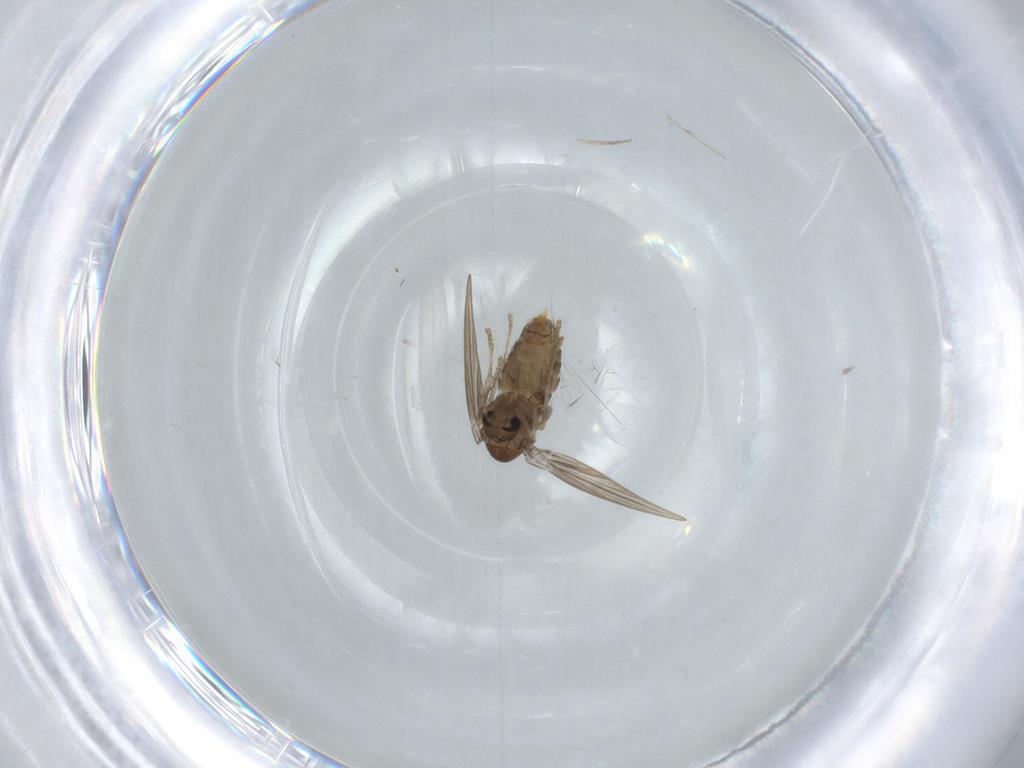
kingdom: Animalia
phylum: Arthropoda
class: Insecta
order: Diptera
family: Psychodidae
